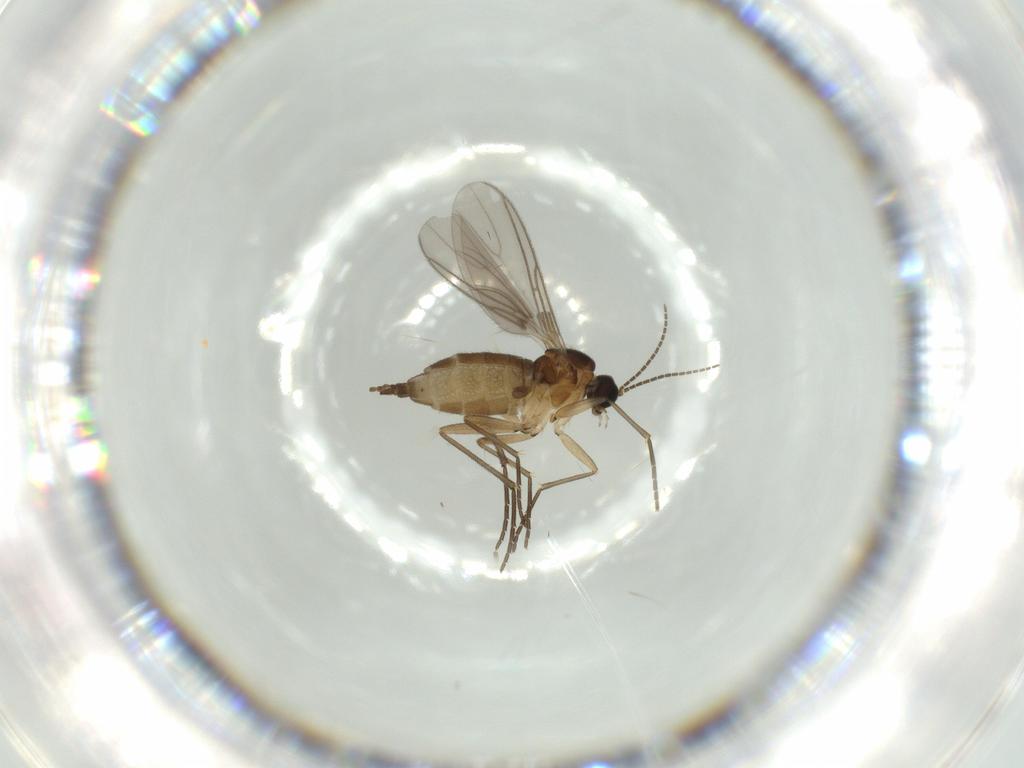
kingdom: Animalia
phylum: Arthropoda
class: Insecta
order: Diptera
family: Sciaridae
